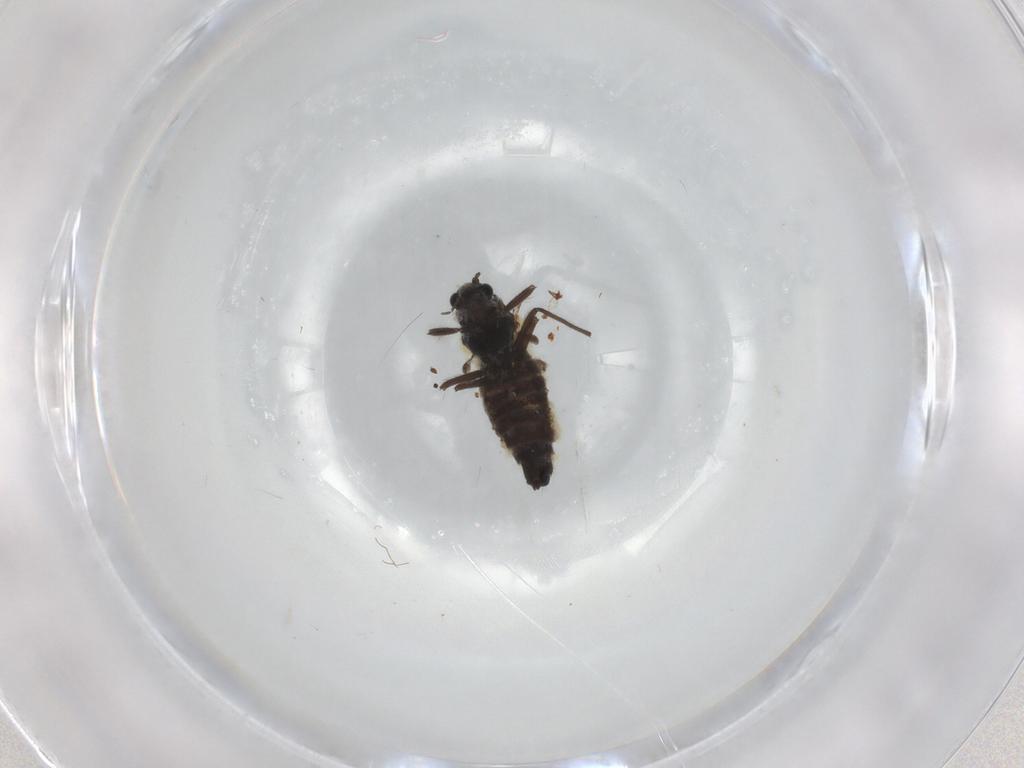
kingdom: Animalia
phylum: Arthropoda
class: Insecta
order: Diptera
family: Muscidae
